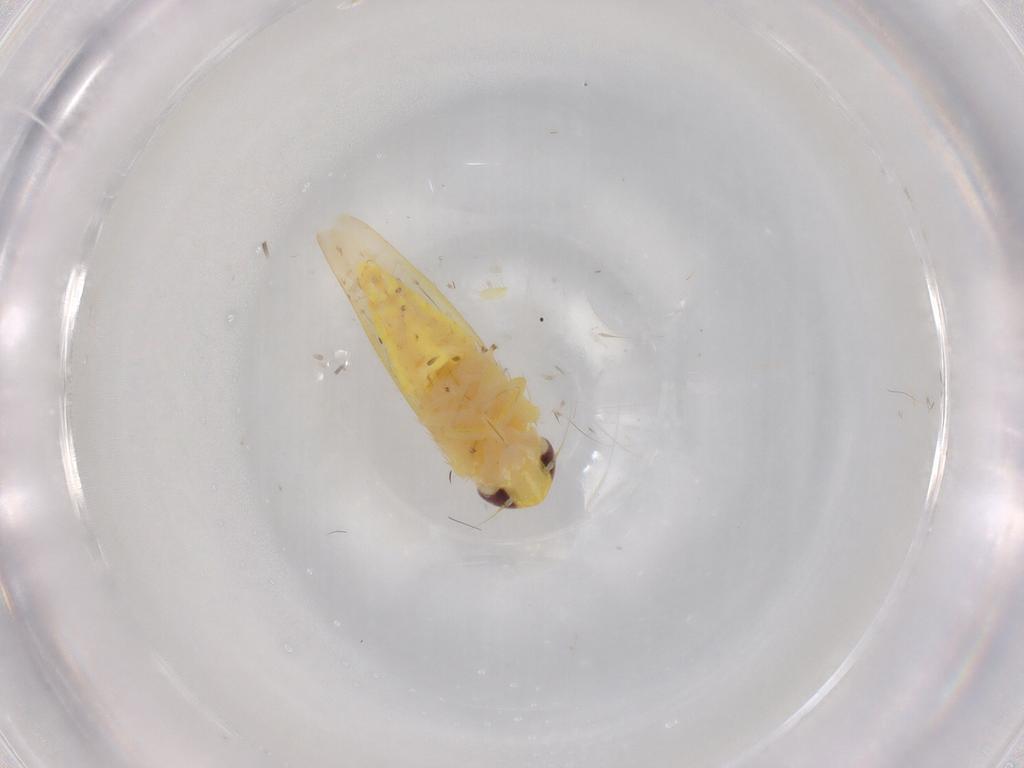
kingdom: Animalia
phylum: Arthropoda
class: Insecta
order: Hemiptera
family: Cicadellidae
